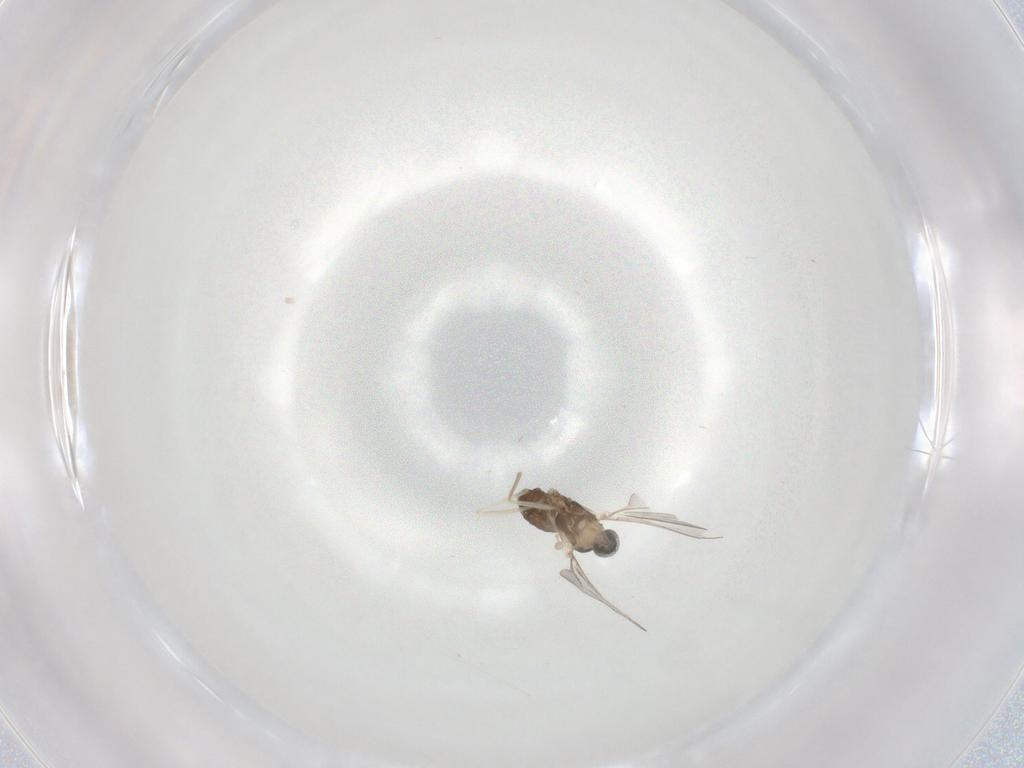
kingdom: Animalia
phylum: Arthropoda
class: Insecta
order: Diptera
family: Cecidomyiidae
